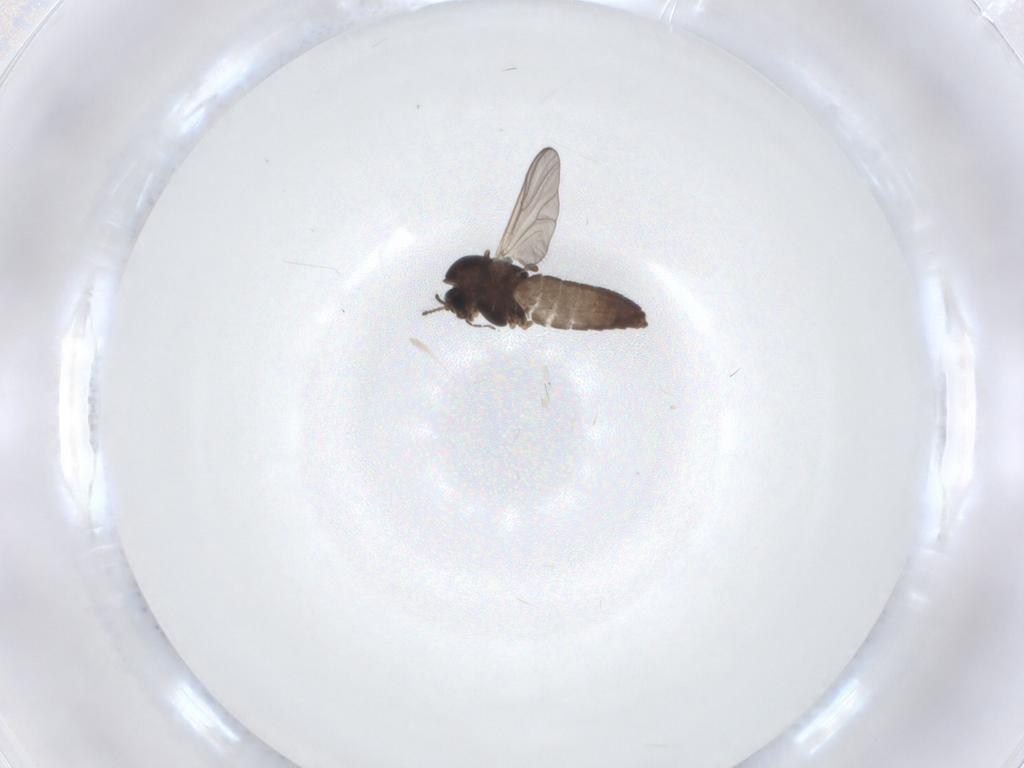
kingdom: Animalia
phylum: Arthropoda
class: Insecta
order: Diptera
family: Chironomidae
